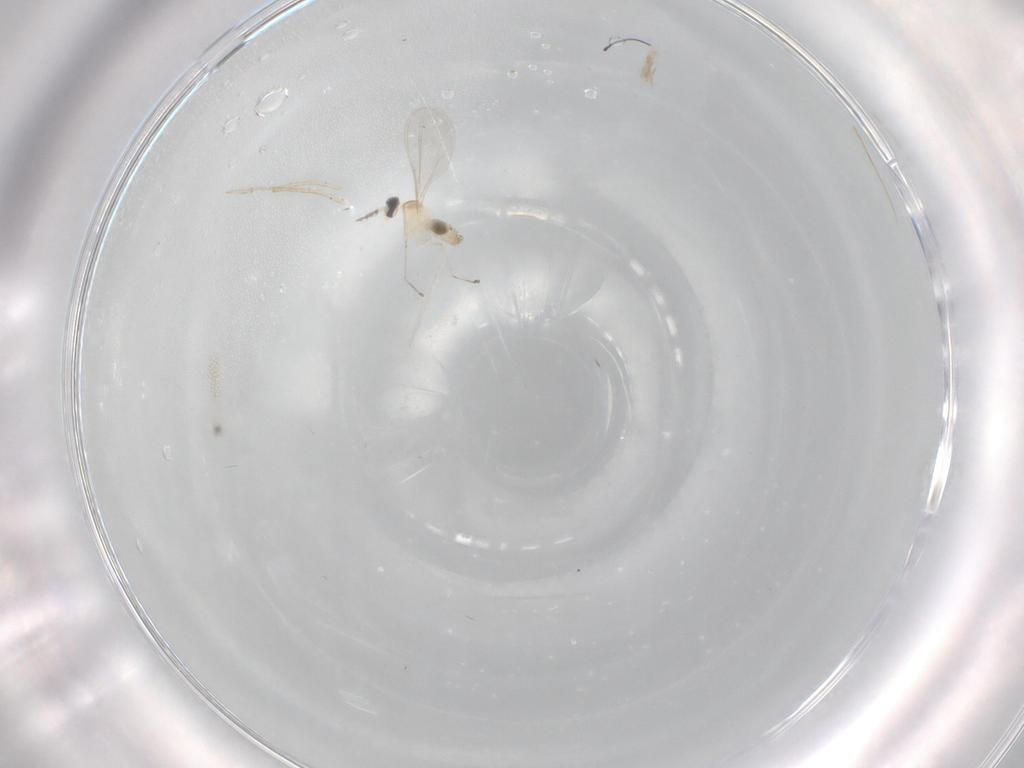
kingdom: Animalia
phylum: Arthropoda
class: Insecta
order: Diptera
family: Cecidomyiidae
